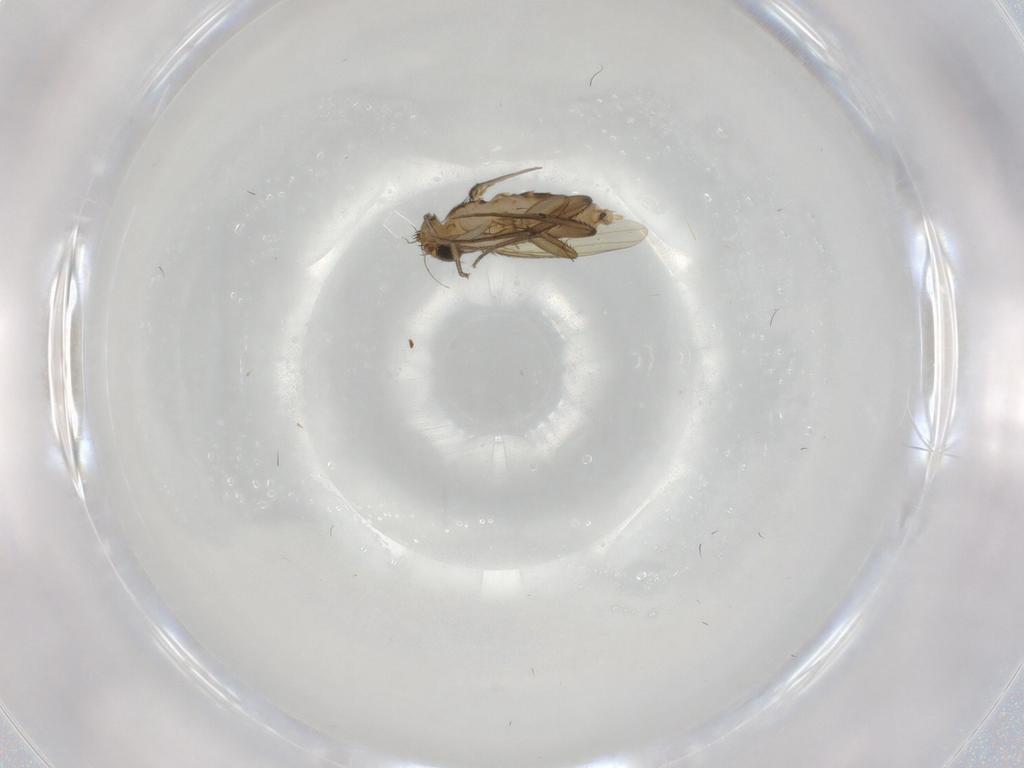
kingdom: Animalia
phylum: Arthropoda
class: Insecta
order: Diptera
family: Phoridae
